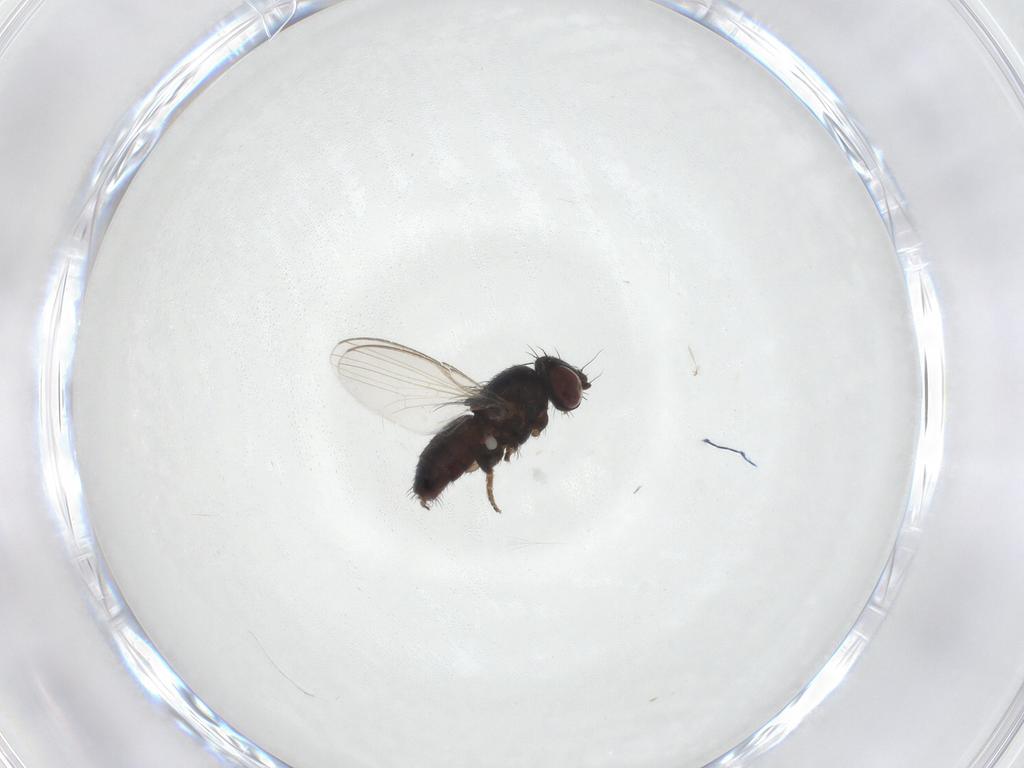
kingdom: Animalia
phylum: Arthropoda
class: Insecta
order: Diptera
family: Milichiidae
